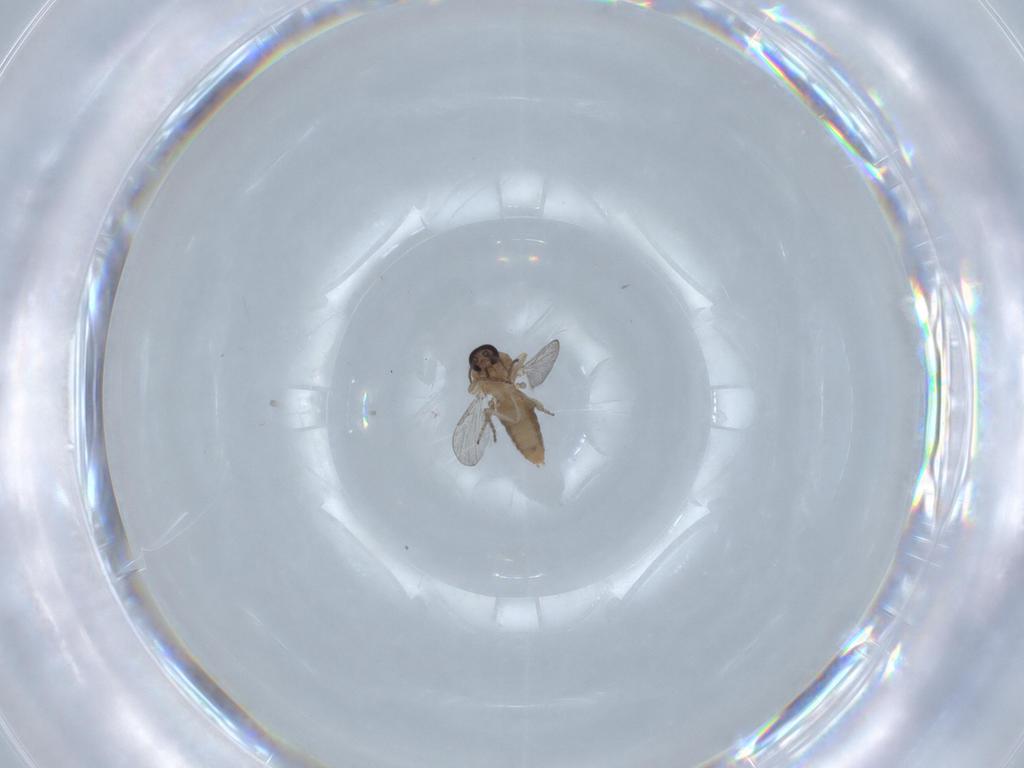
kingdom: Animalia
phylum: Arthropoda
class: Insecta
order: Diptera
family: Ceratopogonidae
